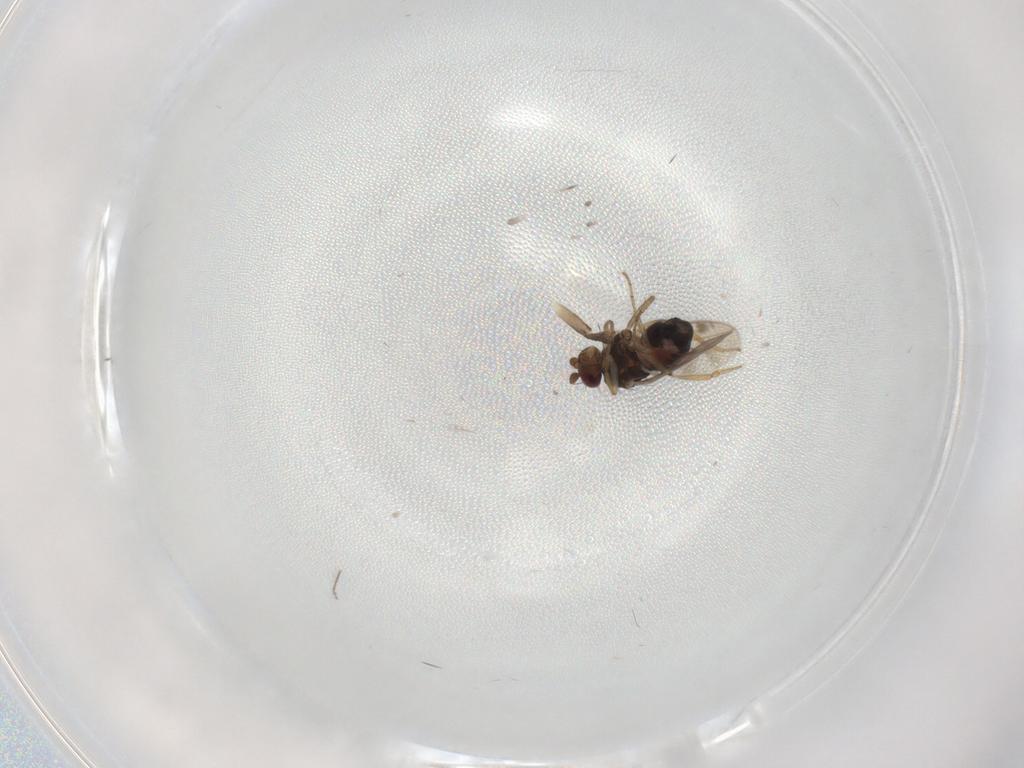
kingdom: Animalia
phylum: Arthropoda
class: Insecta
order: Diptera
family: Sphaeroceridae
